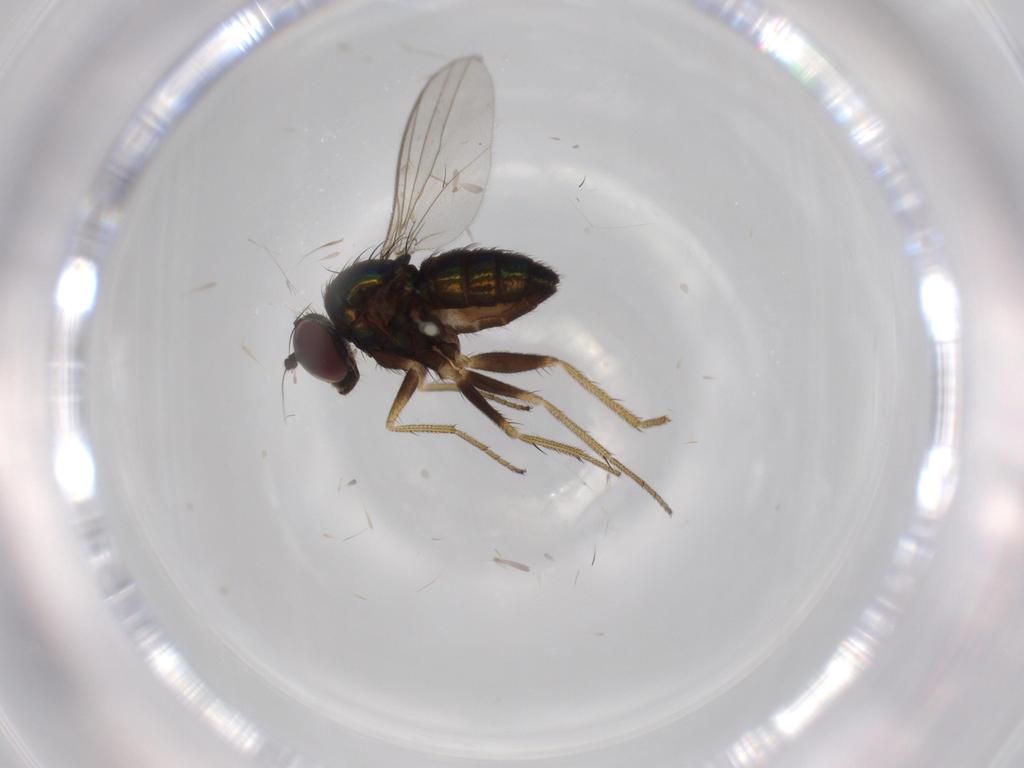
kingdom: Animalia
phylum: Arthropoda
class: Insecta
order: Diptera
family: Dolichopodidae
